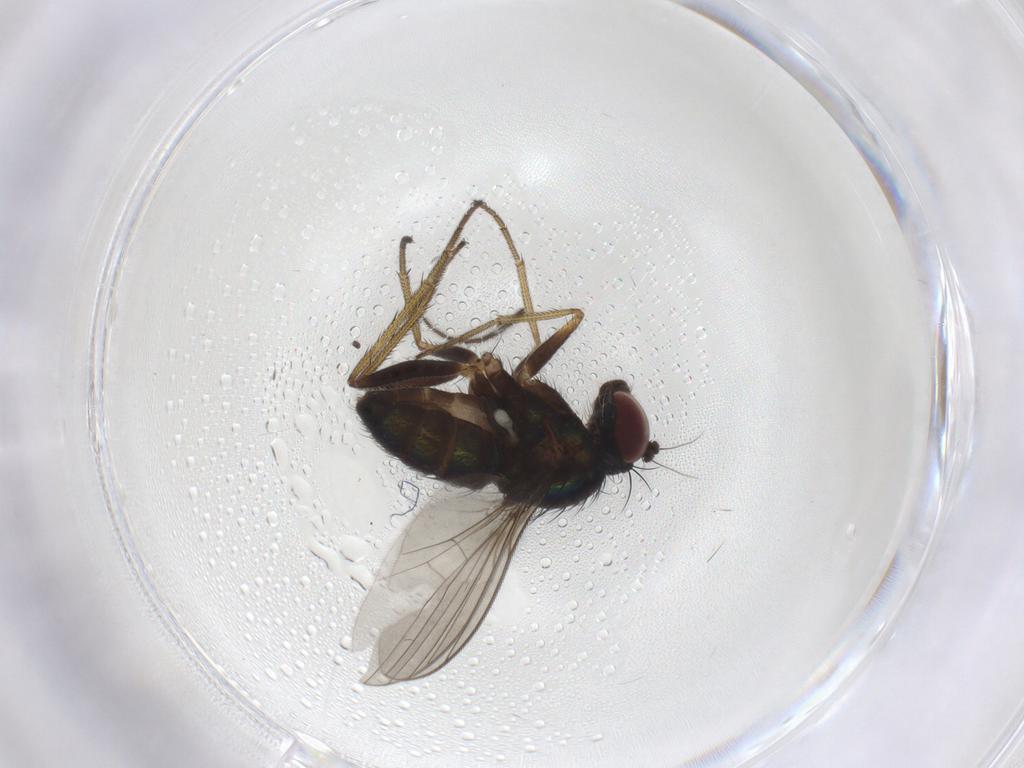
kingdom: Animalia
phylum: Arthropoda
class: Insecta
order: Diptera
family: Dolichopodidae
